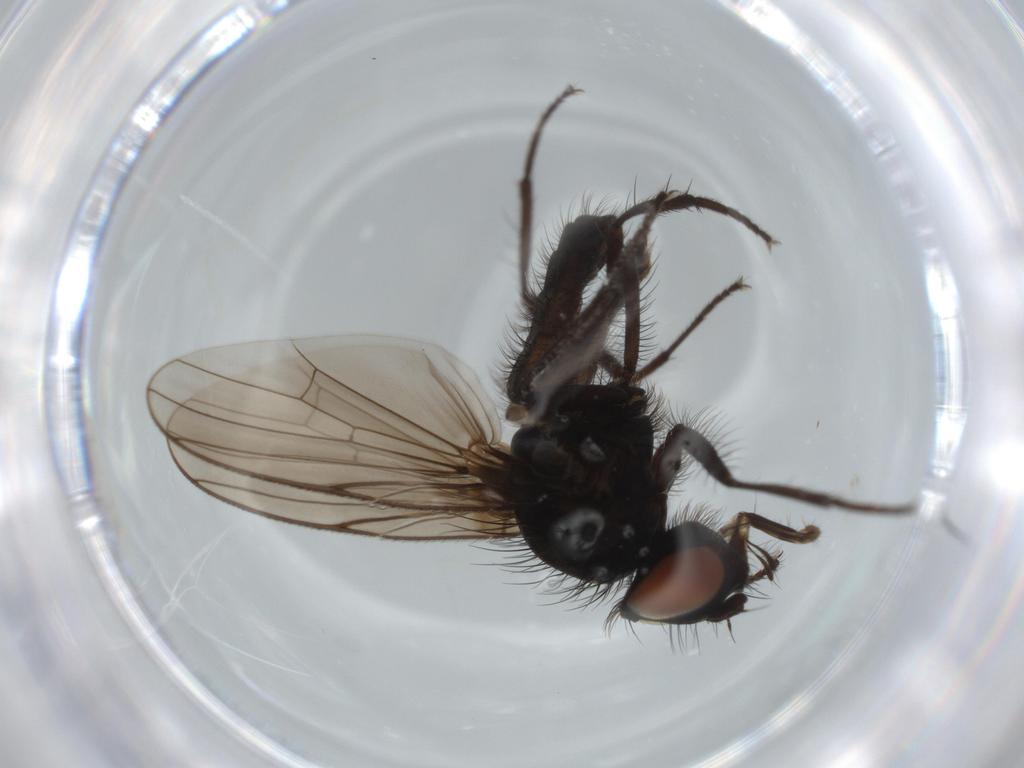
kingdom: Animalia
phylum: Arthropoda
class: Insecta
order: Diptera
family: Anthomyiidae
